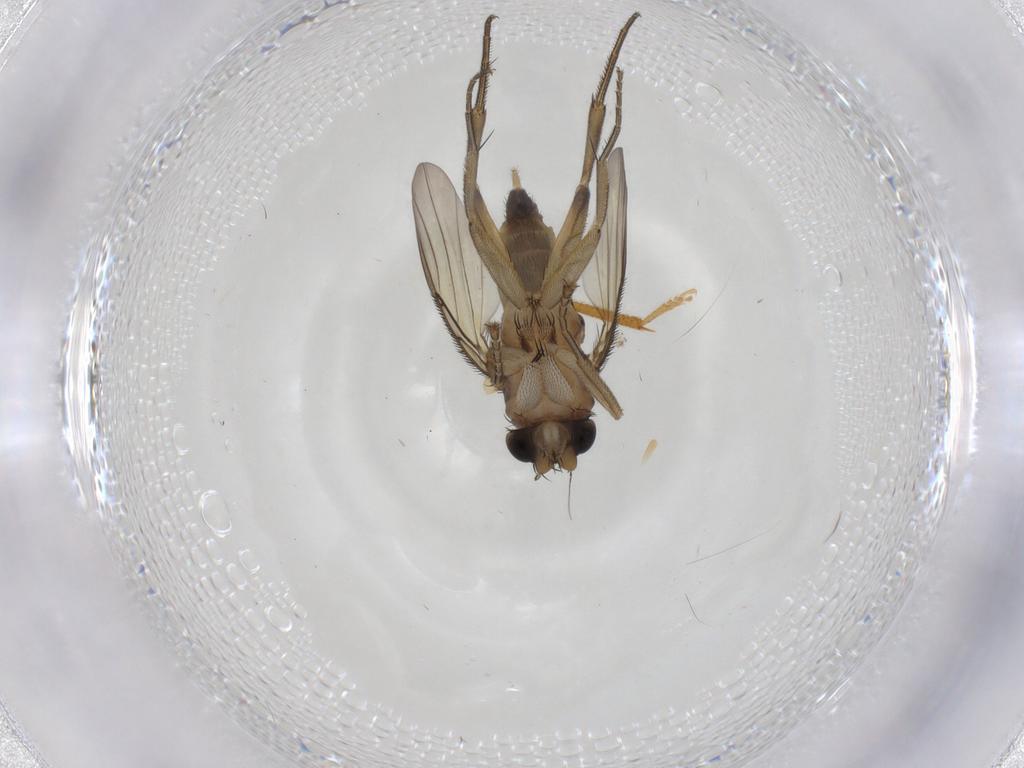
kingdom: Animalia
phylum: Arthropoda
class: Insecta
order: Diptera
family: Phoridae
